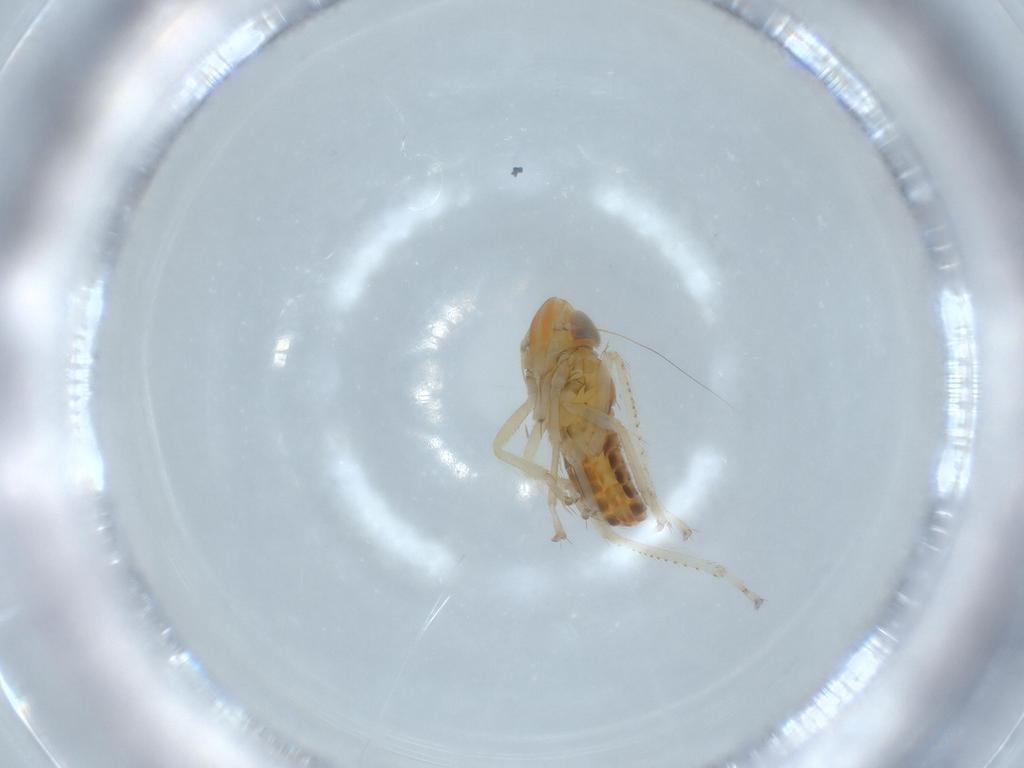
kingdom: Animalia
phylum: Arthropoda
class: Insecta
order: Hemiptera
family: Cicadellidae
